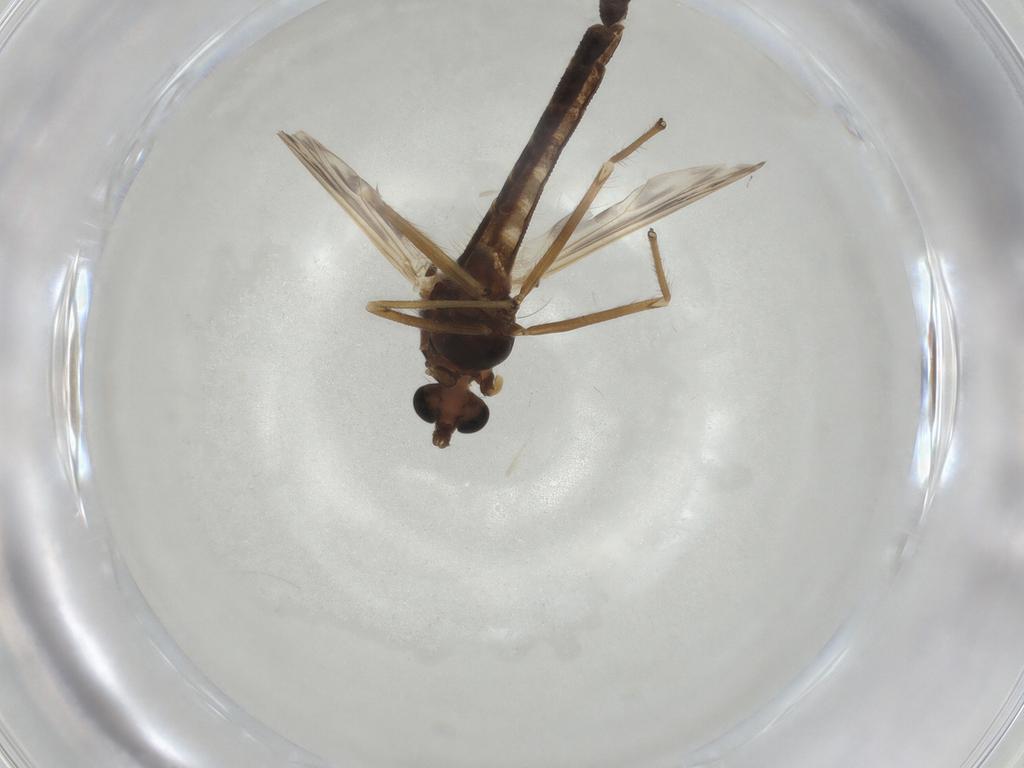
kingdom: Animalia
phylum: Arthropoda
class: Insecta
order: Diptera
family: Chironomidae
